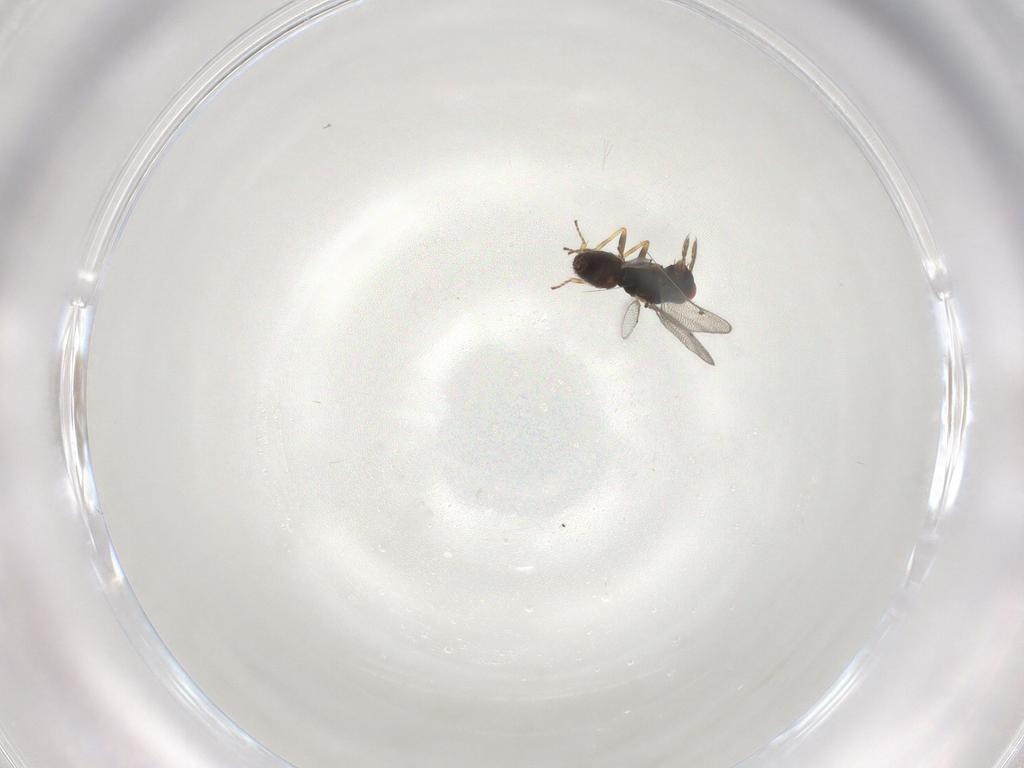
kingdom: Animalia
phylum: Arthropoda
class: Insecta
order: Hymenoptera
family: Eulophidae
